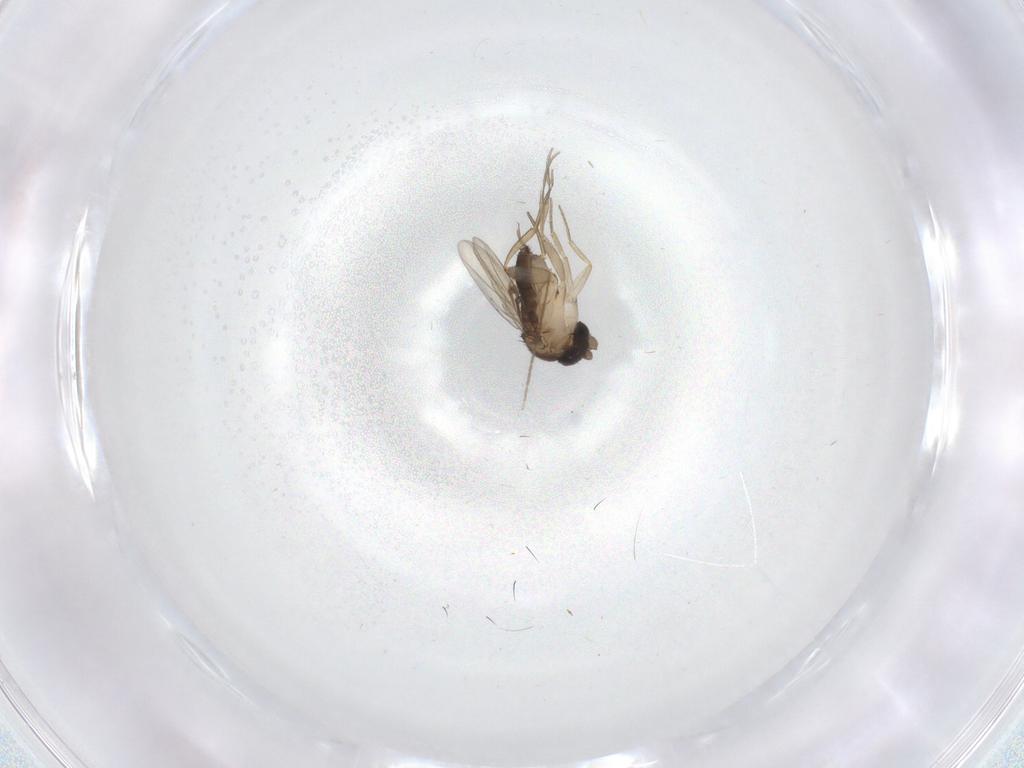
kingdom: Animalia
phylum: Arthropoda
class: Insecta
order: Diptera
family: Chironomidae
